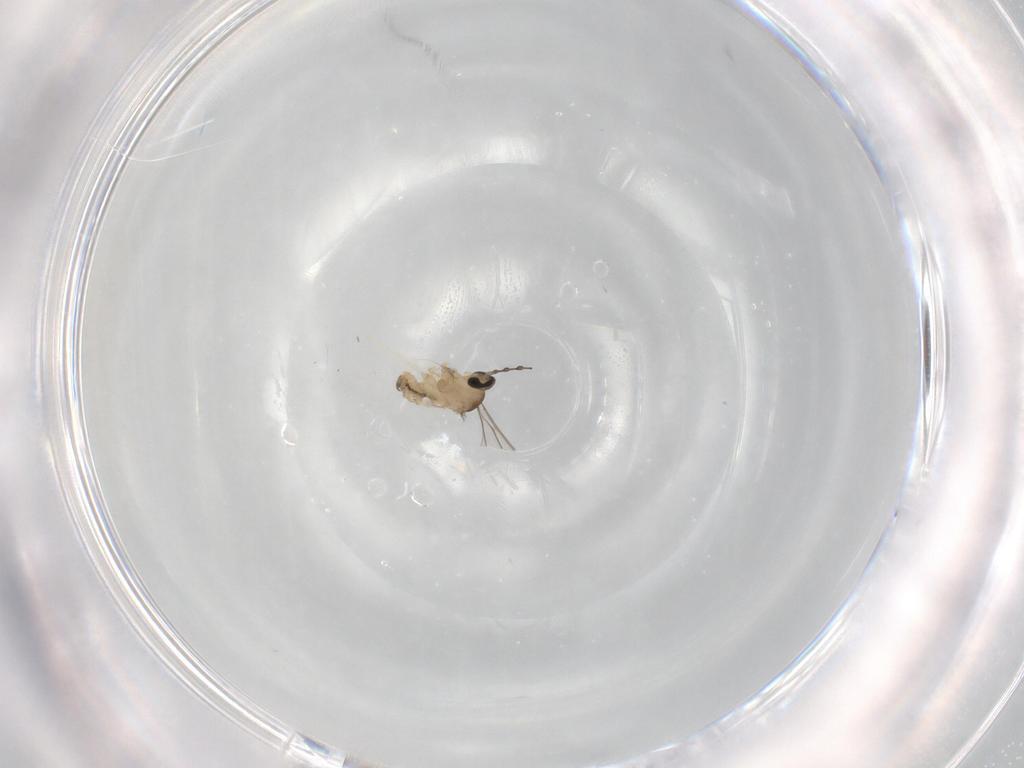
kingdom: Animalia
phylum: Arthropoda
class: Insecta
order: Diptera
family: Cecidomyiidae
